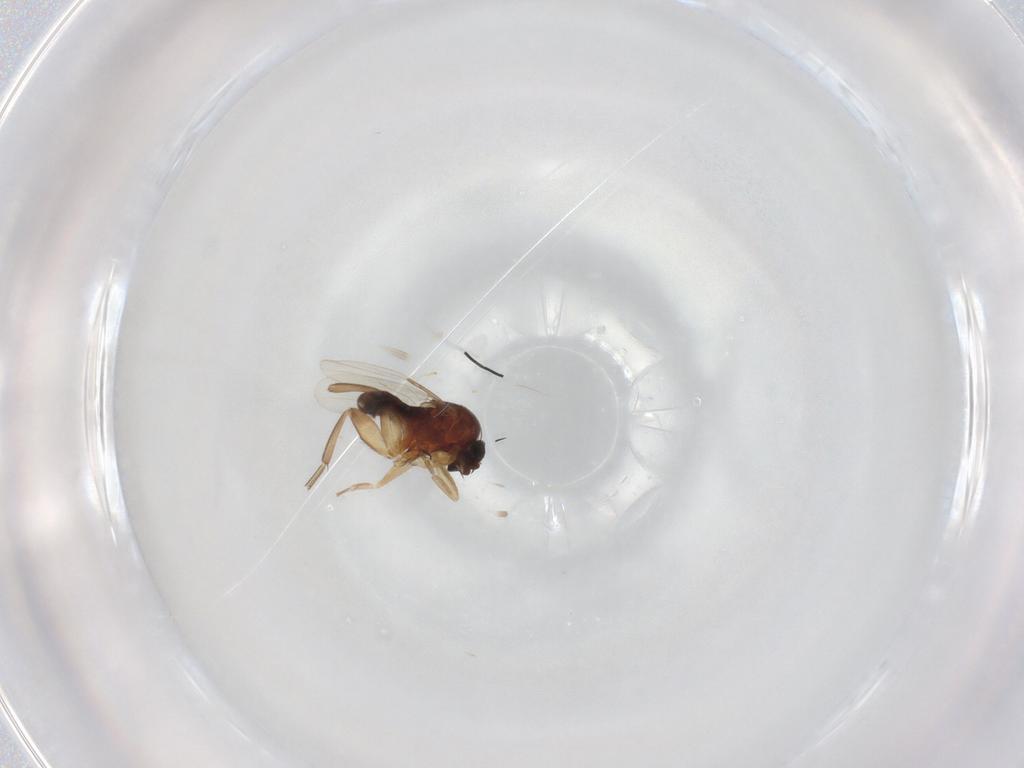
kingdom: Animalia
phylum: Arthropoda
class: Insecta
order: Diptera
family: Phoridae
